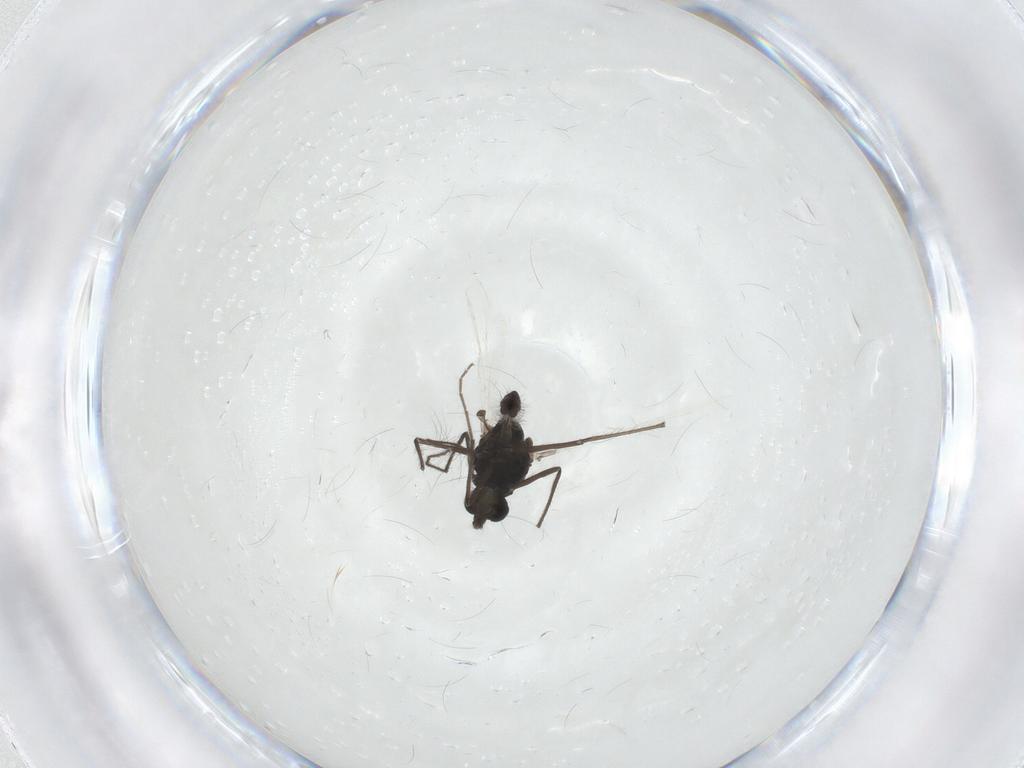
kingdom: Animalia
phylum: Arthropoda
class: Insecta
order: Diptera
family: Chironomidae
